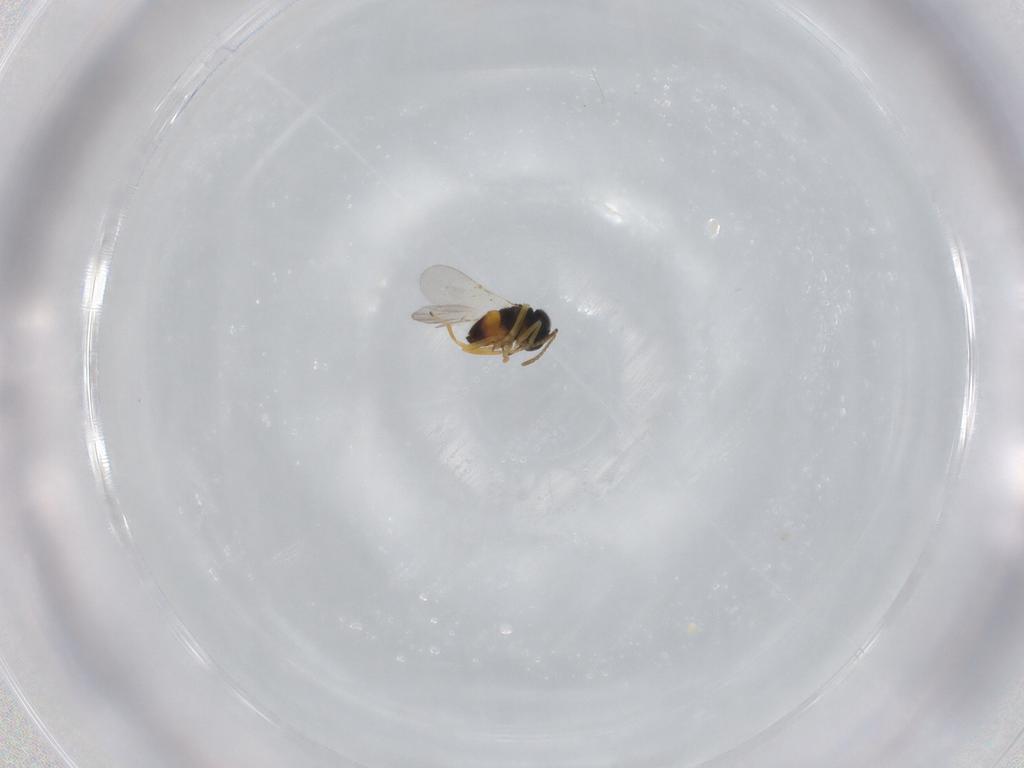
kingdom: Animalia
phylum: Arthropoda
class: Insecta
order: Hymenoptera
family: Encyrtidae
